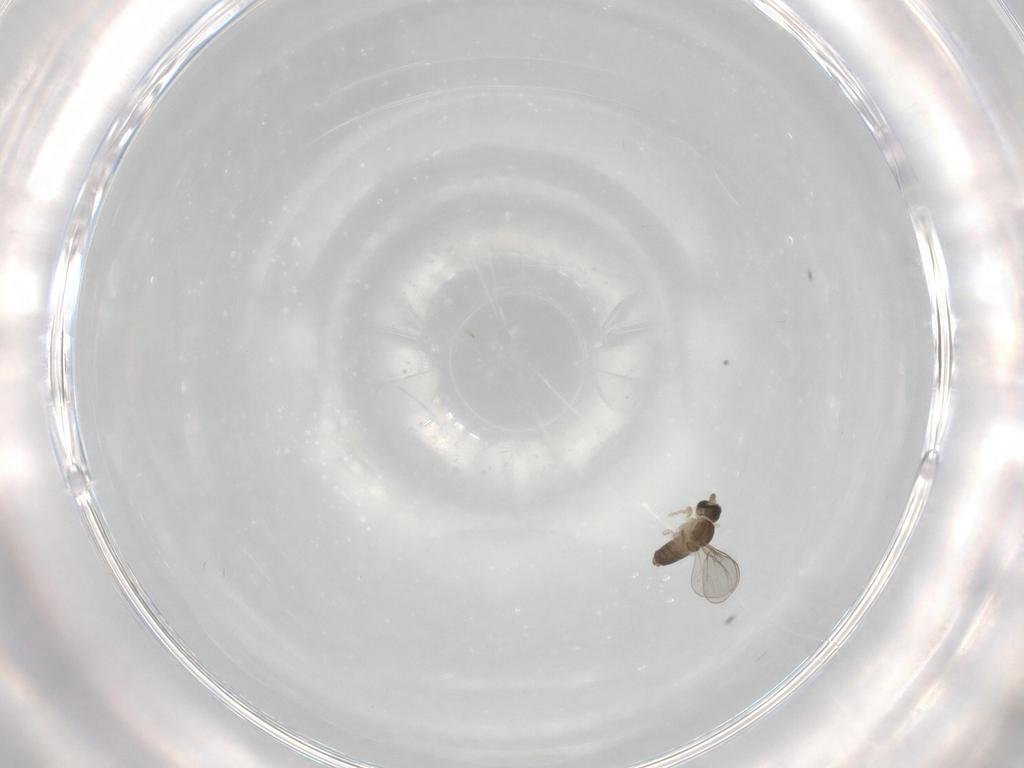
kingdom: Animalia
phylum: Arthropoda
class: Insecta
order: Diptera
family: Cecidomyiidae
